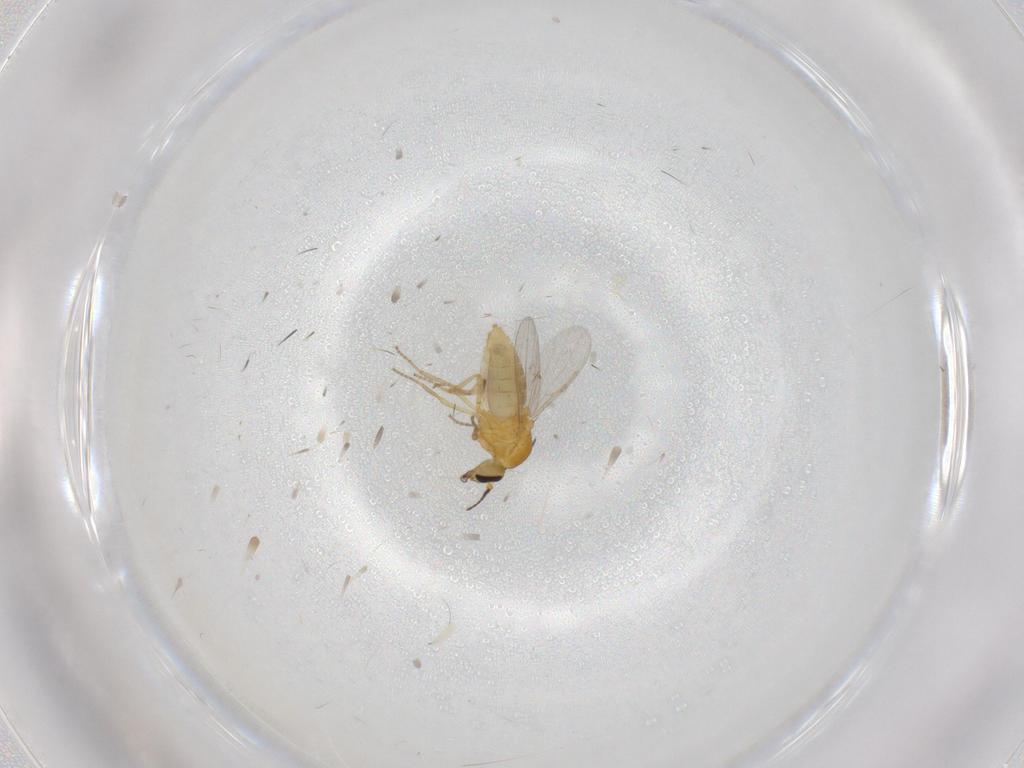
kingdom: Animalia
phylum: Arthropoda
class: Insecta
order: Diptera
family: Ceratopogonidae
